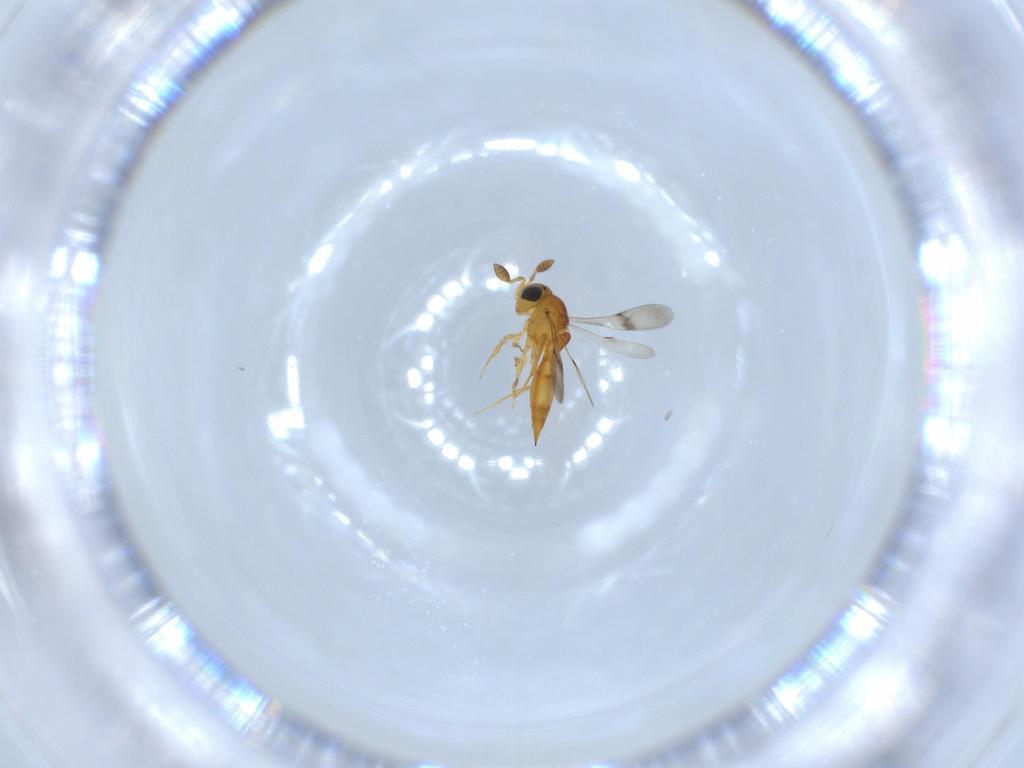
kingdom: Animalia
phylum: Arthropoda
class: Insecta
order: Hymenoptera
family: Scelionidae
